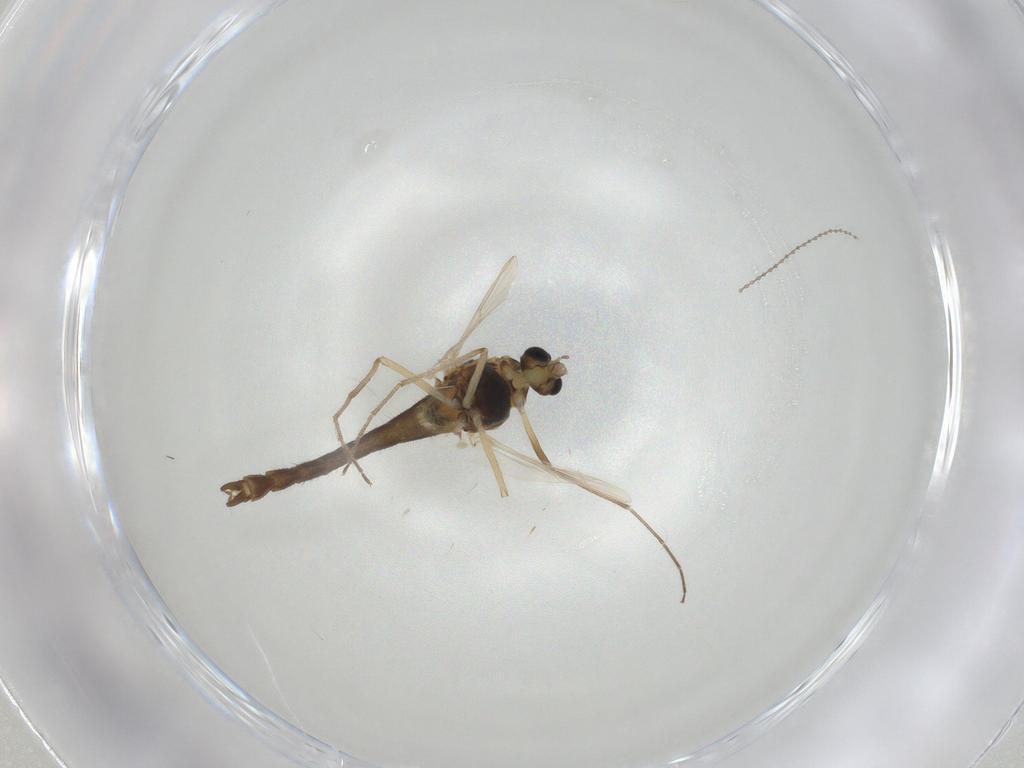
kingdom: Animalia
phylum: Arthropoda
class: Insecta
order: Diptera
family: Chironomidae
